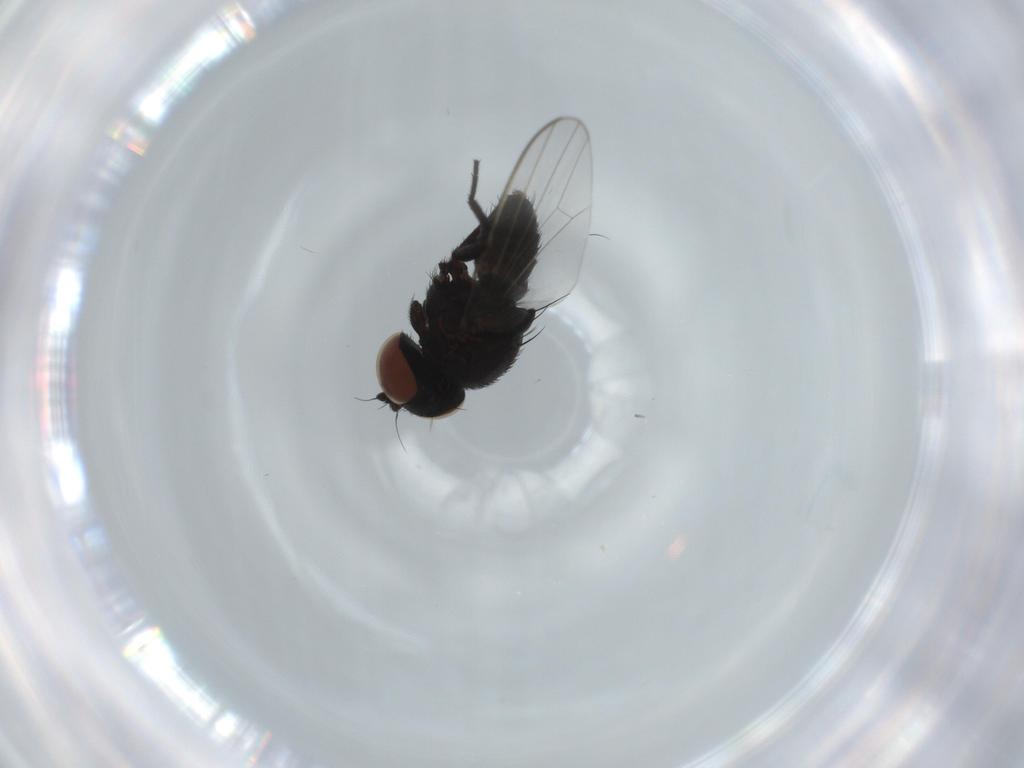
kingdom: Animalia
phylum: Arthropoda
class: Insecta
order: Diptera
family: Milichiidae
